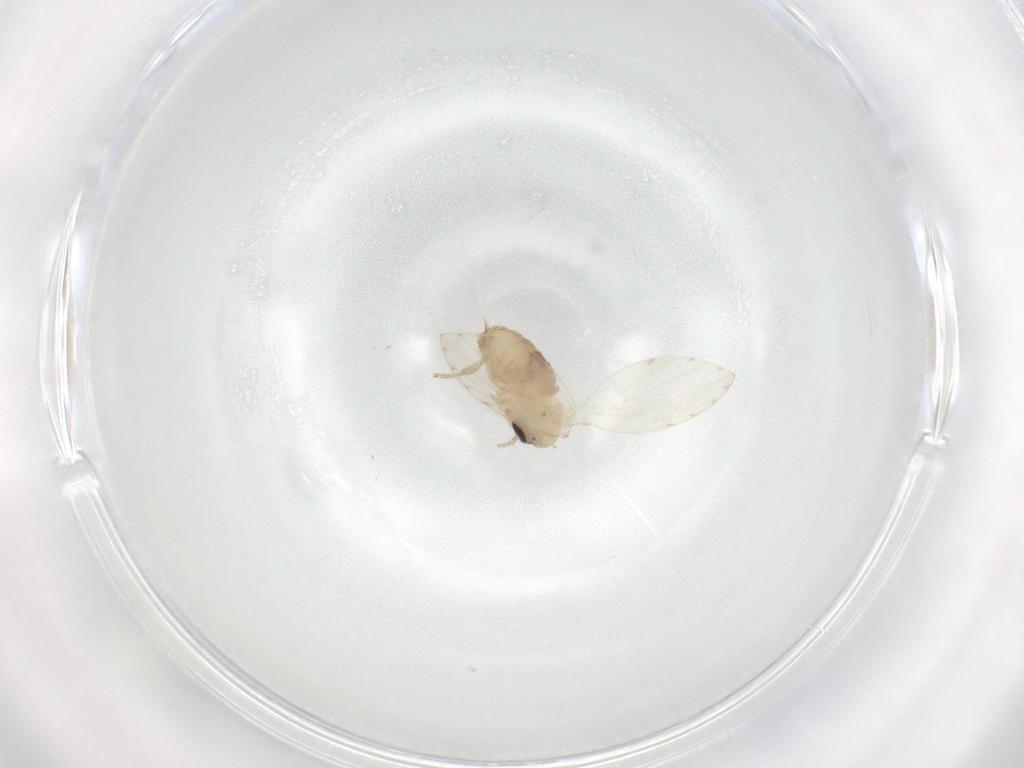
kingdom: Animalia
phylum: Arthropoda
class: Insecta
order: Diptera
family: Psychodidae
